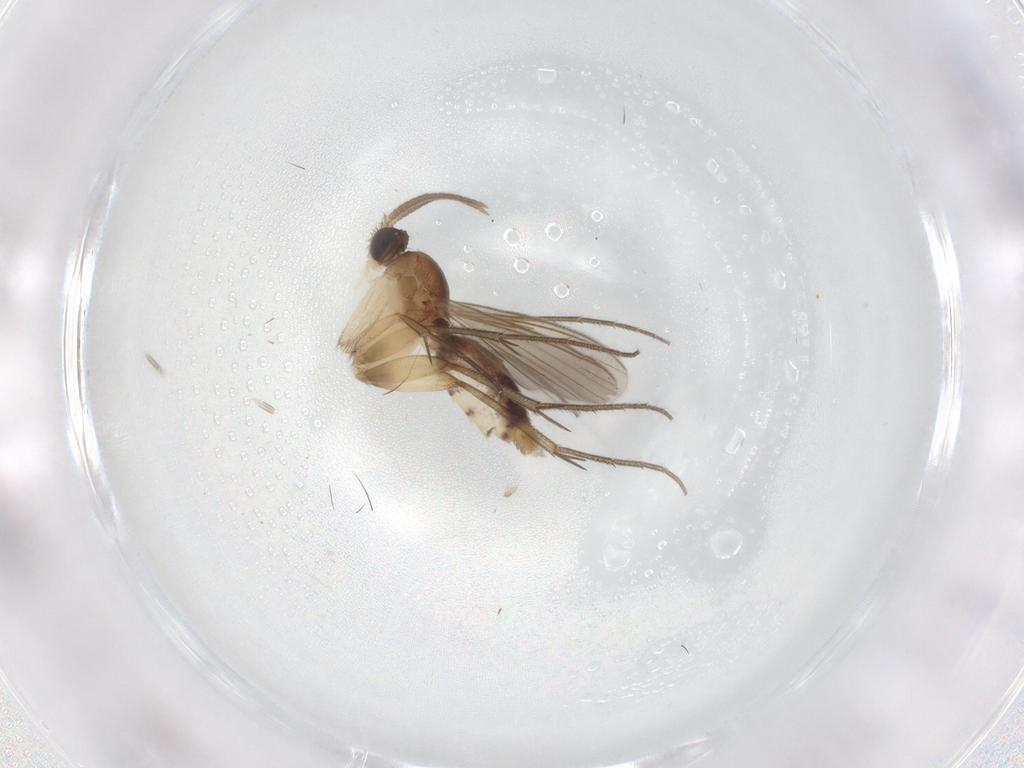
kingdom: Animalia
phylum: Arthropoda
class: Insecta
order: Diptera
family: Mycetophilidae
